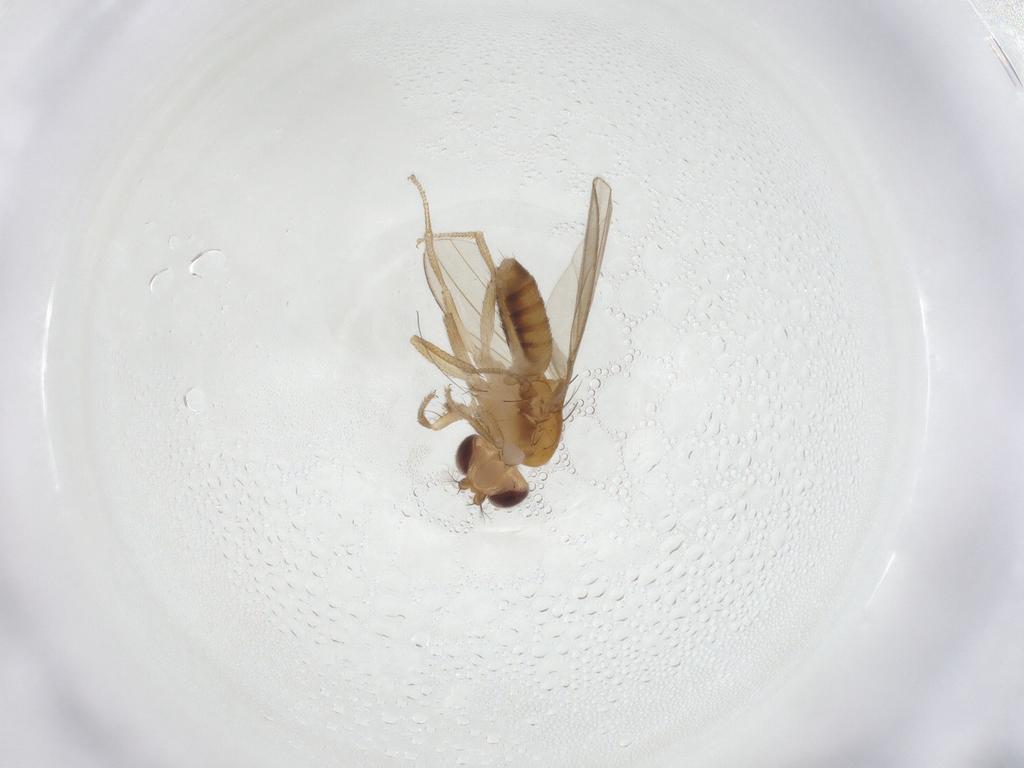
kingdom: Animalia
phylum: Arthropoda
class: Insecta
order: Diptera
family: Drosophilidae
